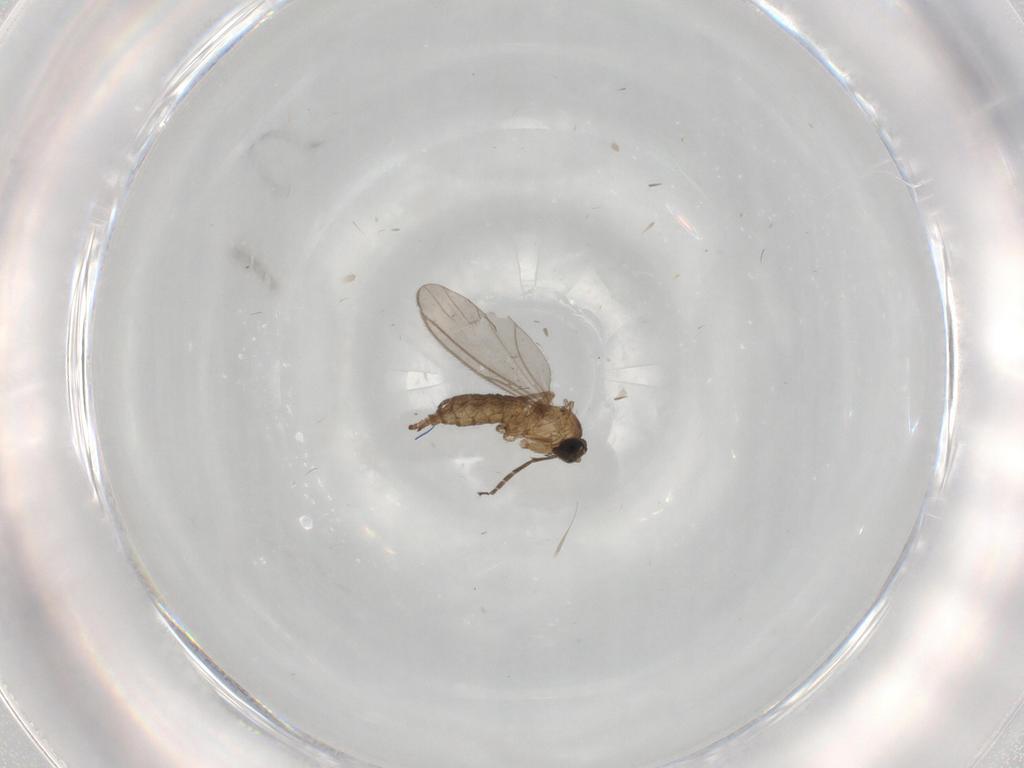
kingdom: Animalia
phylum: Arthropoda
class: Insecta
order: Diptera
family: Sciaridae
